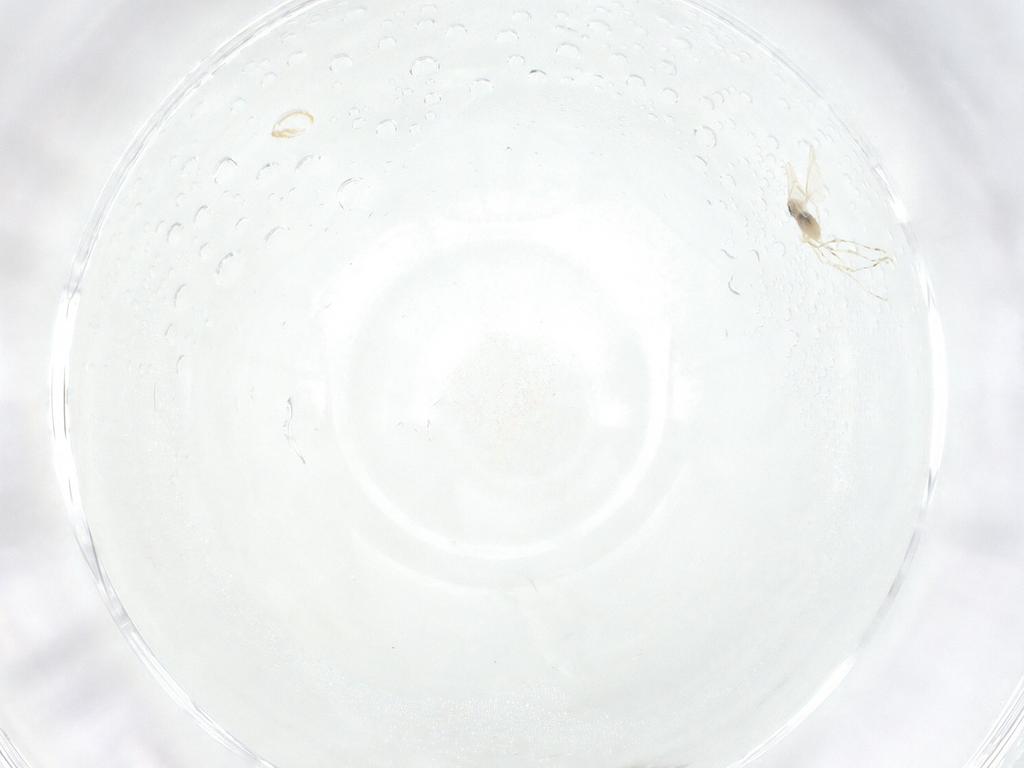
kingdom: Animalia
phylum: Arthropoda
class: Insecta
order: Diptera
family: Cecidomyiidae
